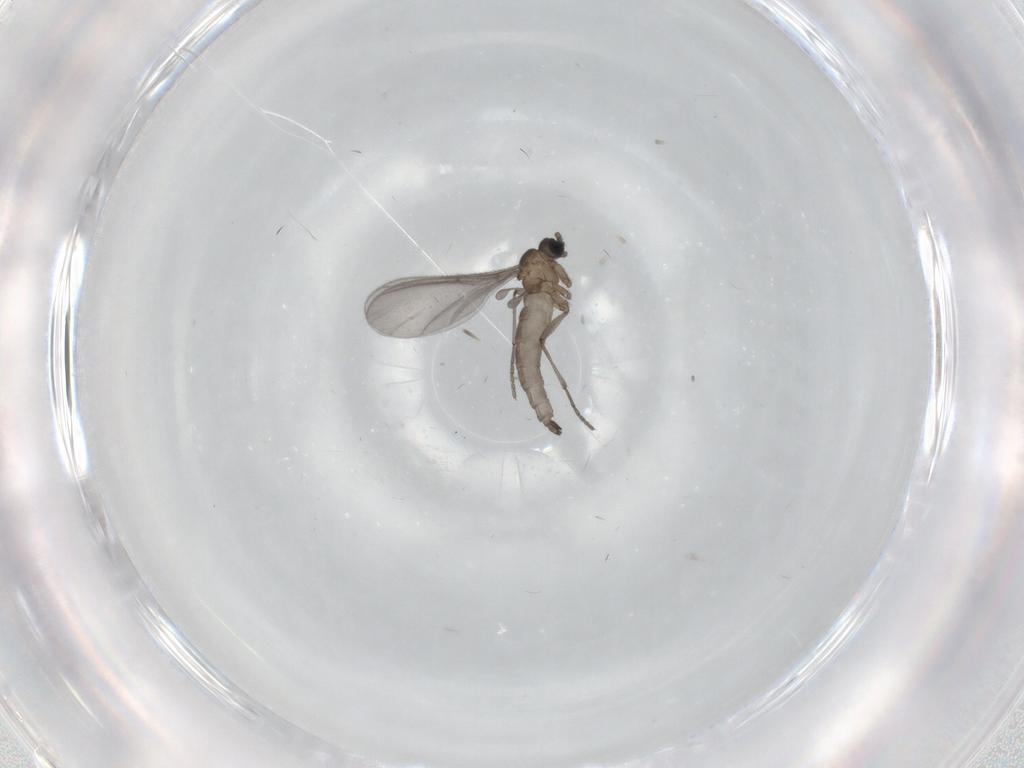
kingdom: Animalia
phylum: Arthropoda
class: Insecta
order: Diptera
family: Sciaridae
